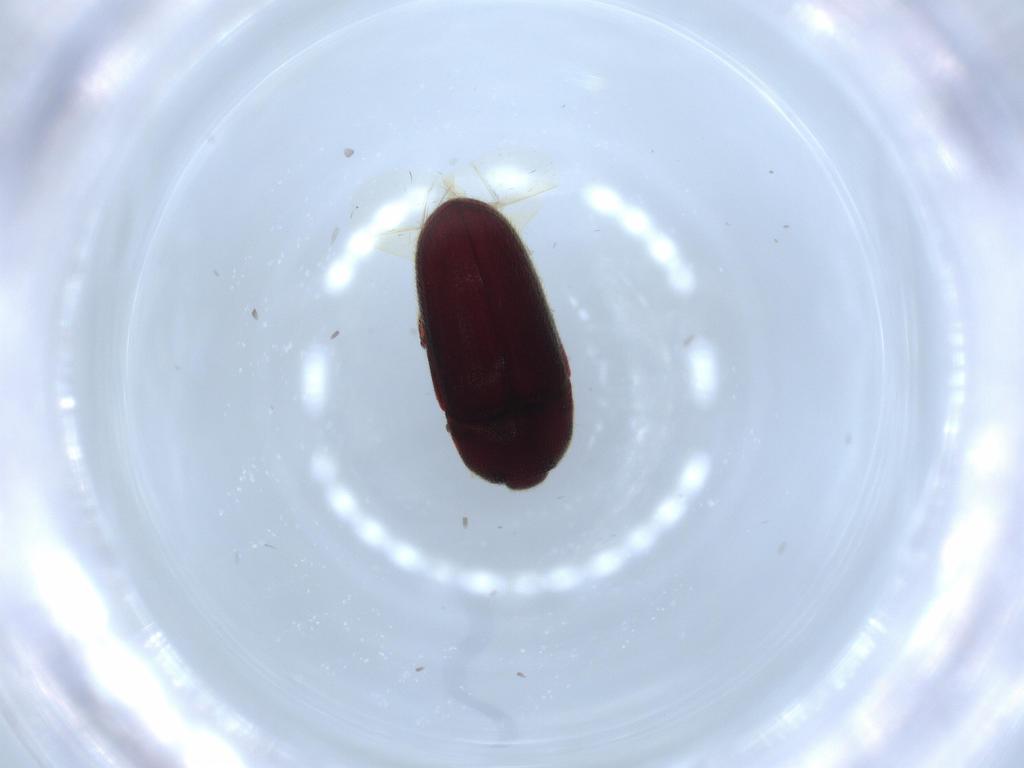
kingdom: Animalia
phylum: Arthropoda
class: Insecta
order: Coleoptera
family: Throscidae
